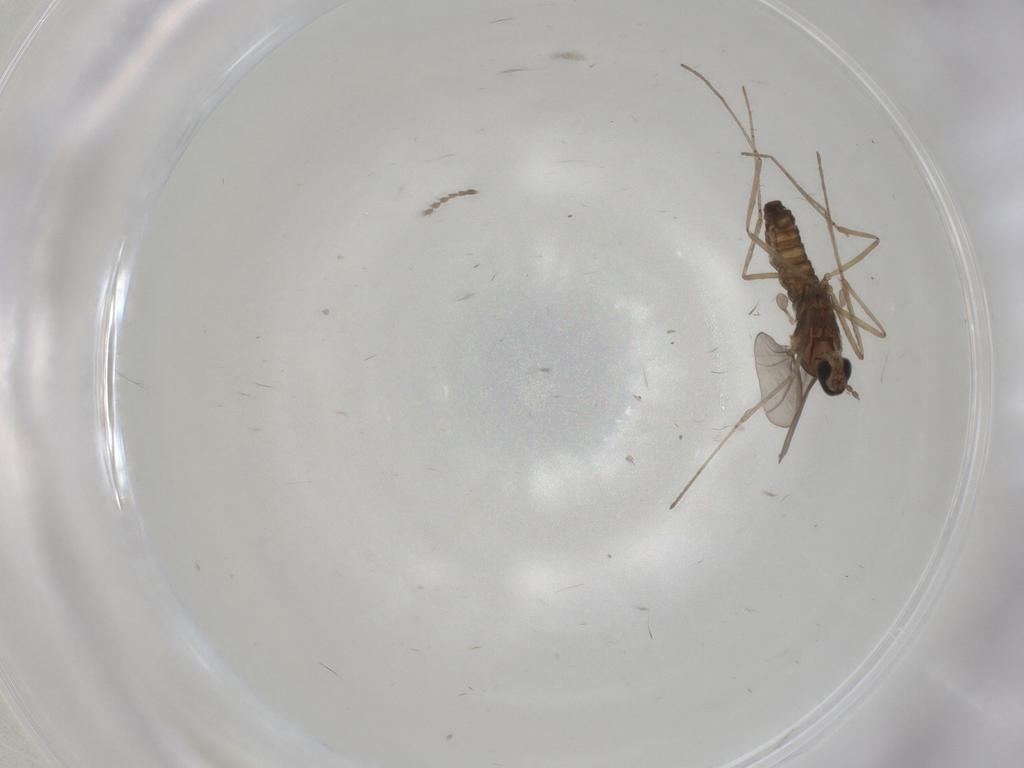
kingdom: Animalia
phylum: Arthropoda
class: Insecta
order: Diptera
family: Cecidomyiidae
